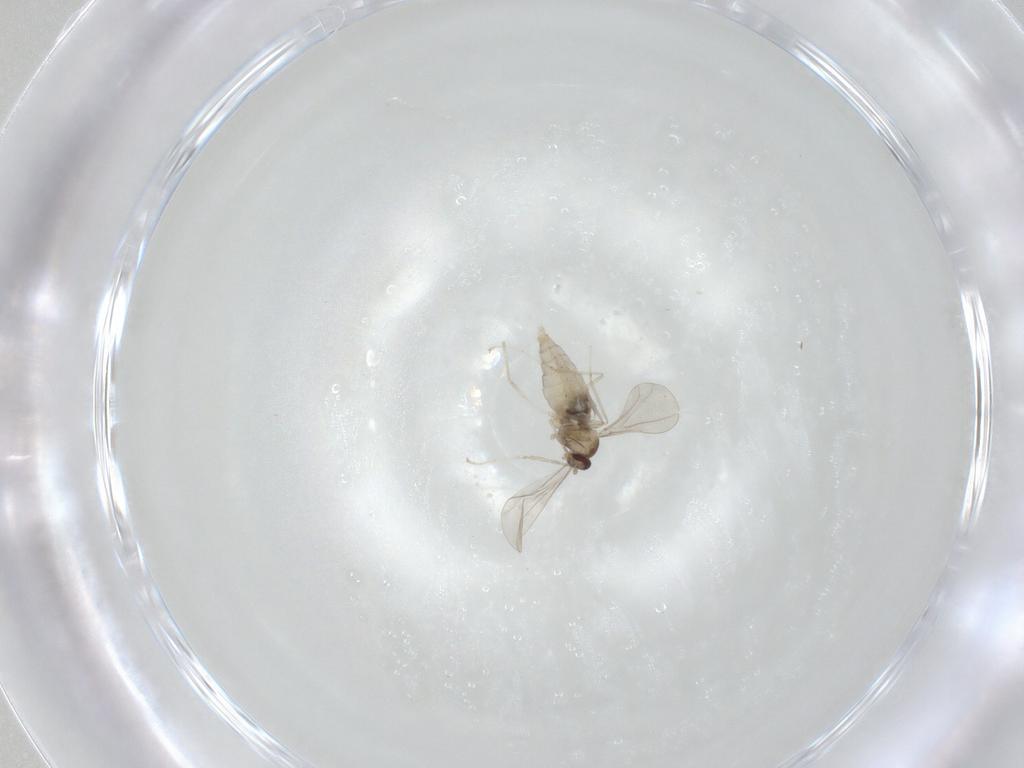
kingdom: Animalia
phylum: Arthropoda
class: Insecta
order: Diptera
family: Cecidomyiidae
